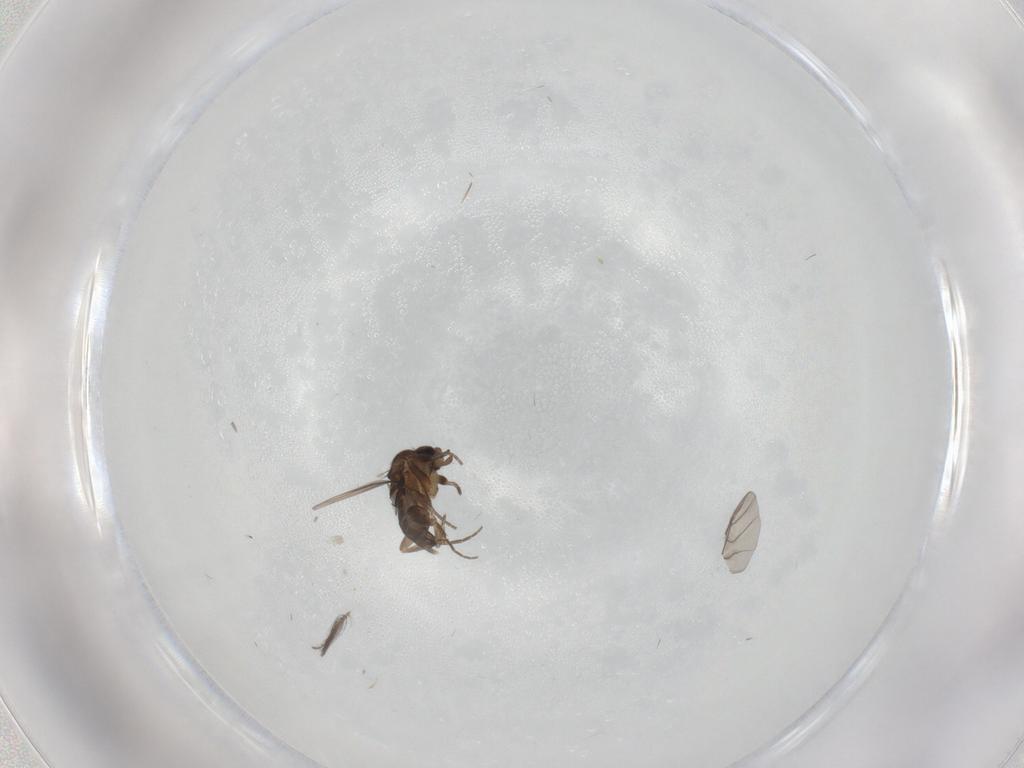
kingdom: Animalia
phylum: Arthropoda
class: Insecta
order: Diptera
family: Phoridae
